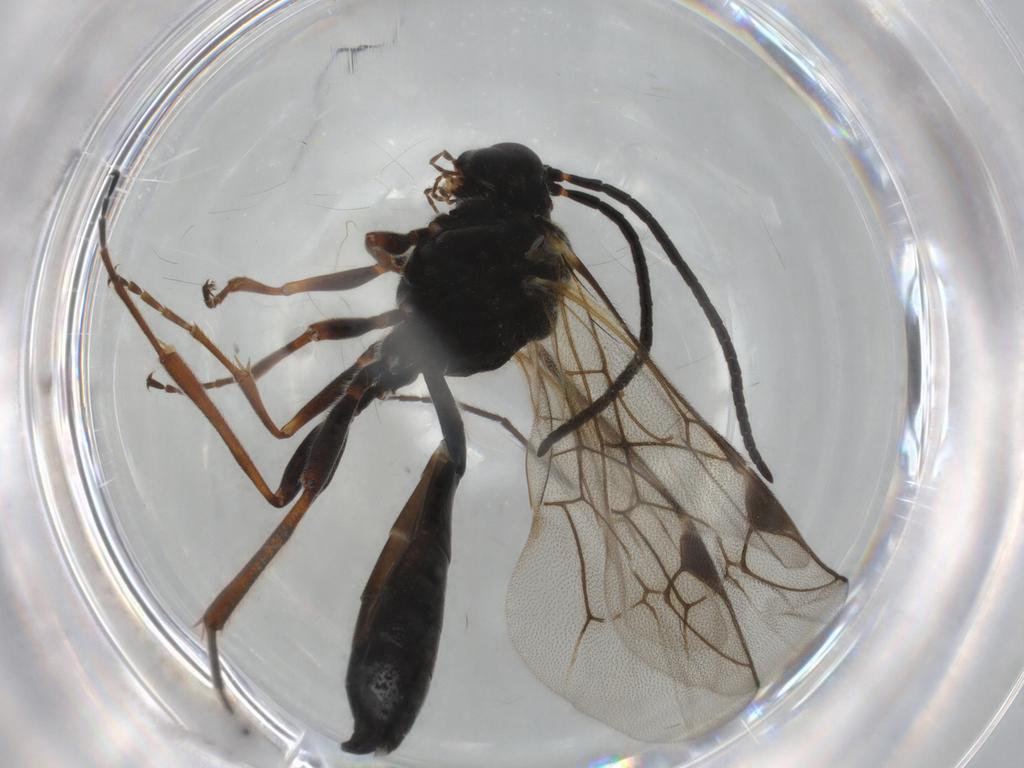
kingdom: Animalia
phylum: Arthropoda
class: Insecta
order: Hymenoptera
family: Ichneumonidae
